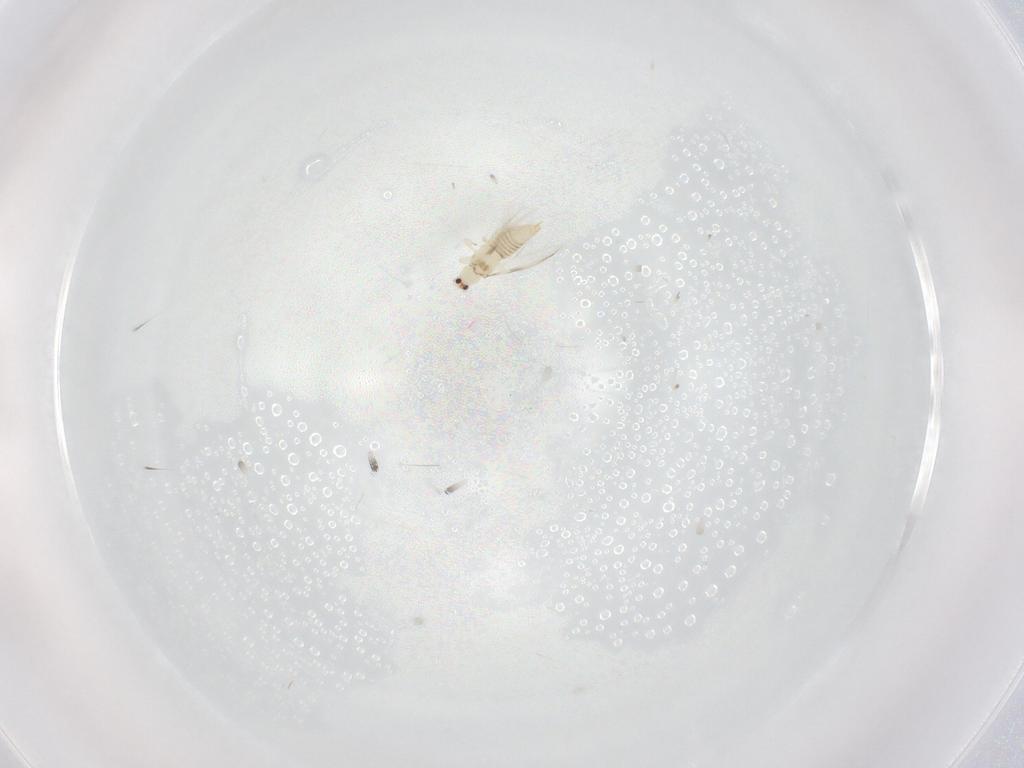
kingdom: Animalia
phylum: Arthropoda
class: Insecta
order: Thysanoptera
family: Thripidae
